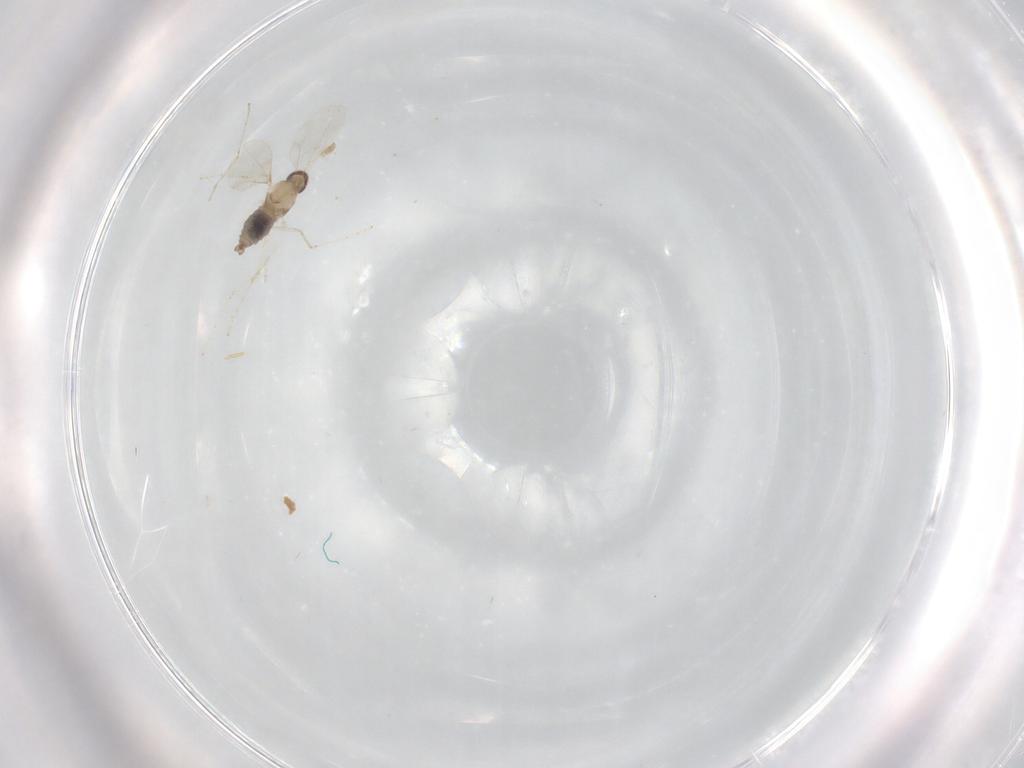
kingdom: Animalia
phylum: Arthropoda
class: Insecta
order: Diptera
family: Cecidomyiidae
